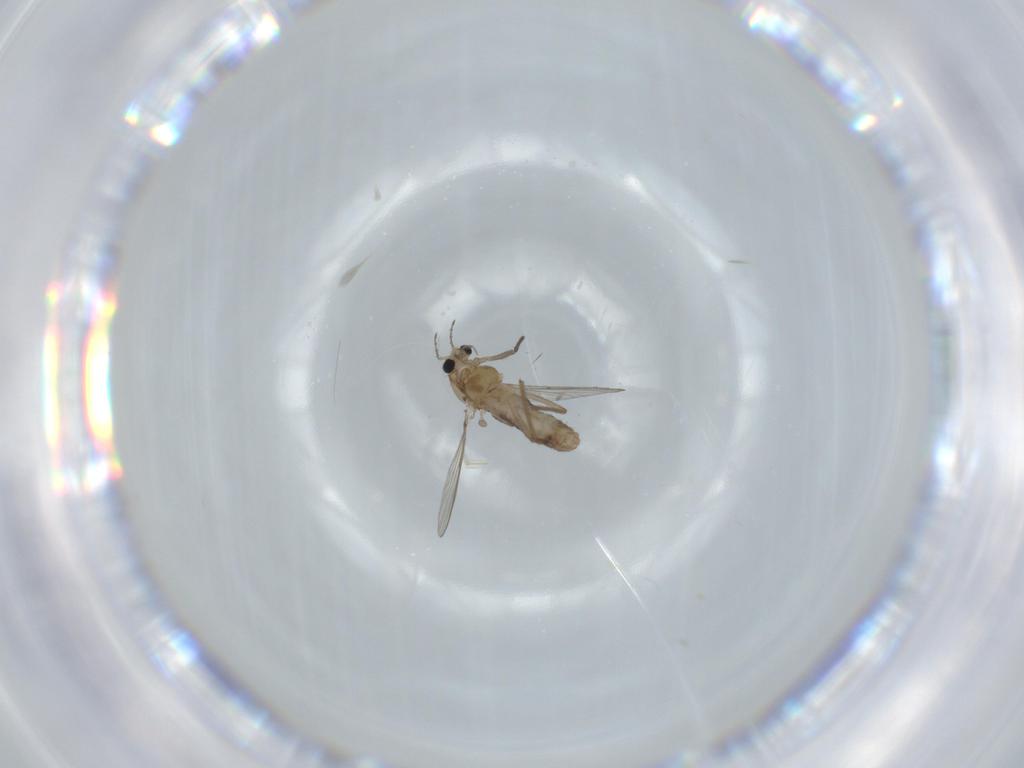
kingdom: Animalia
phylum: Arthropoda
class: Insecta
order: Diptera
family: Chironomidae
